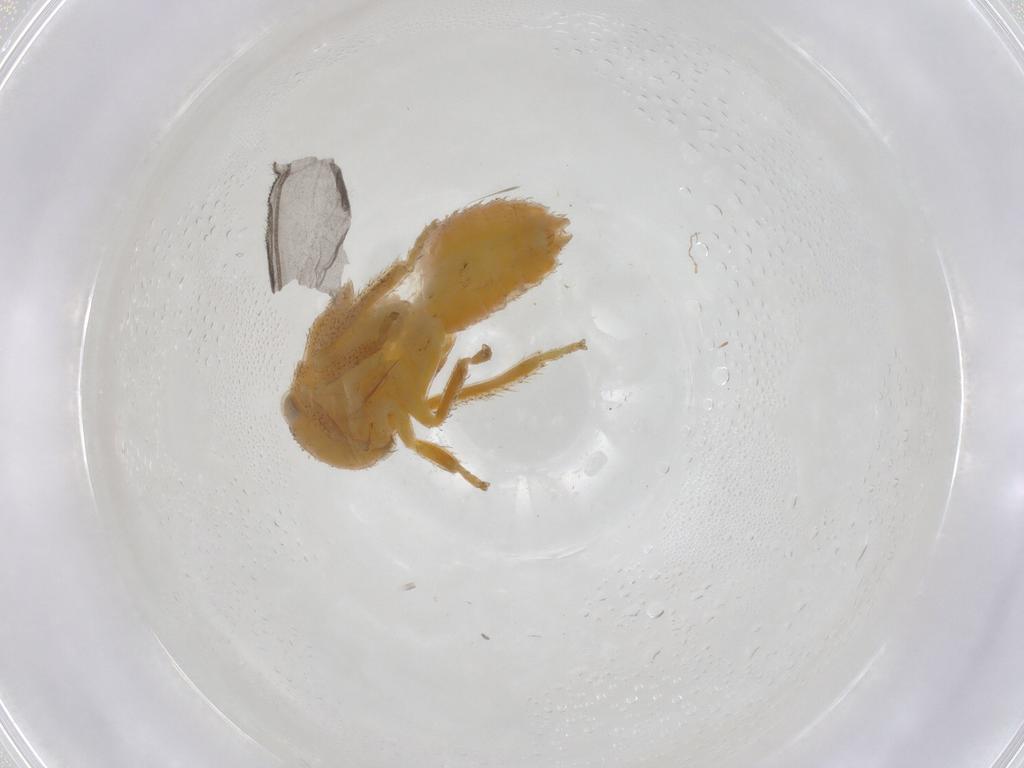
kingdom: Animalia
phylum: Arthropoda
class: Insecta
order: Hymenoptera
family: Dryinidae
